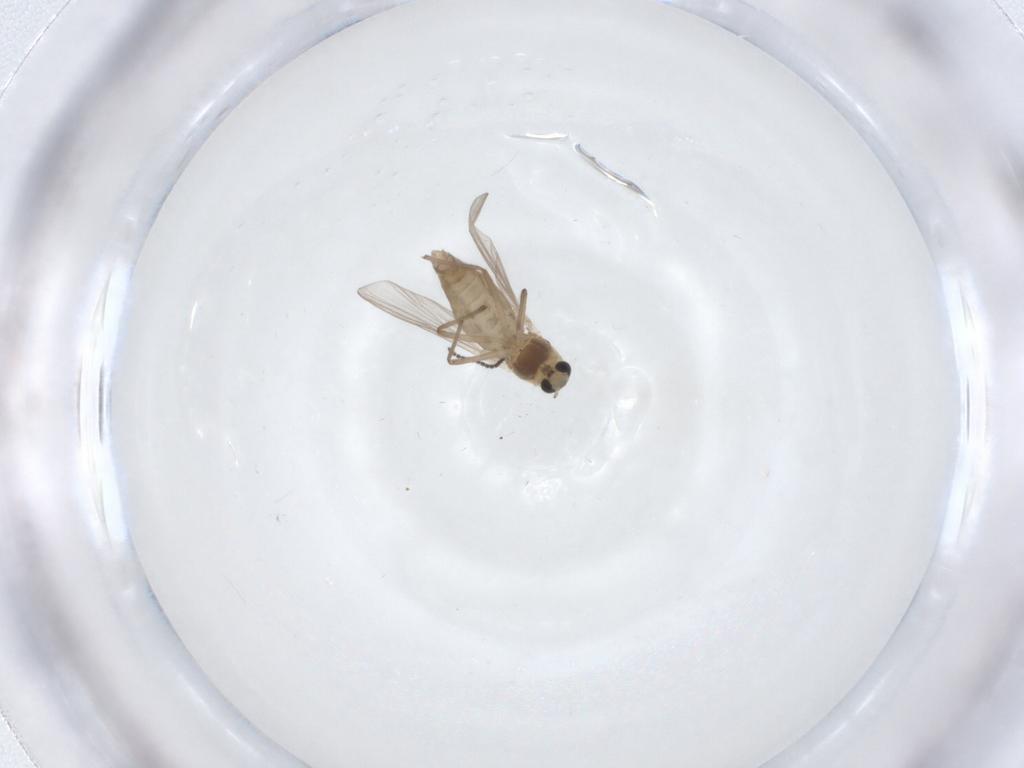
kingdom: Animalia
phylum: Arthropoda
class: Insecta
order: Diptera
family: Chironomidae
